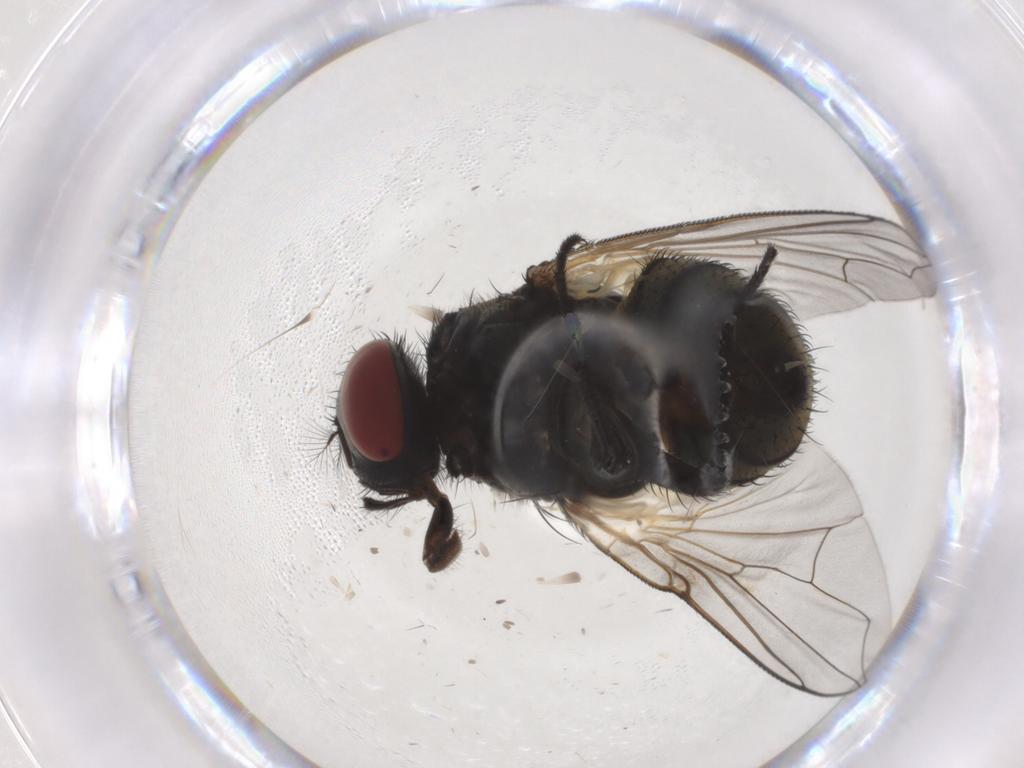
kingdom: Animalia
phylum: Arthropoda
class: Insecta
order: Diptera
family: Muscidae
